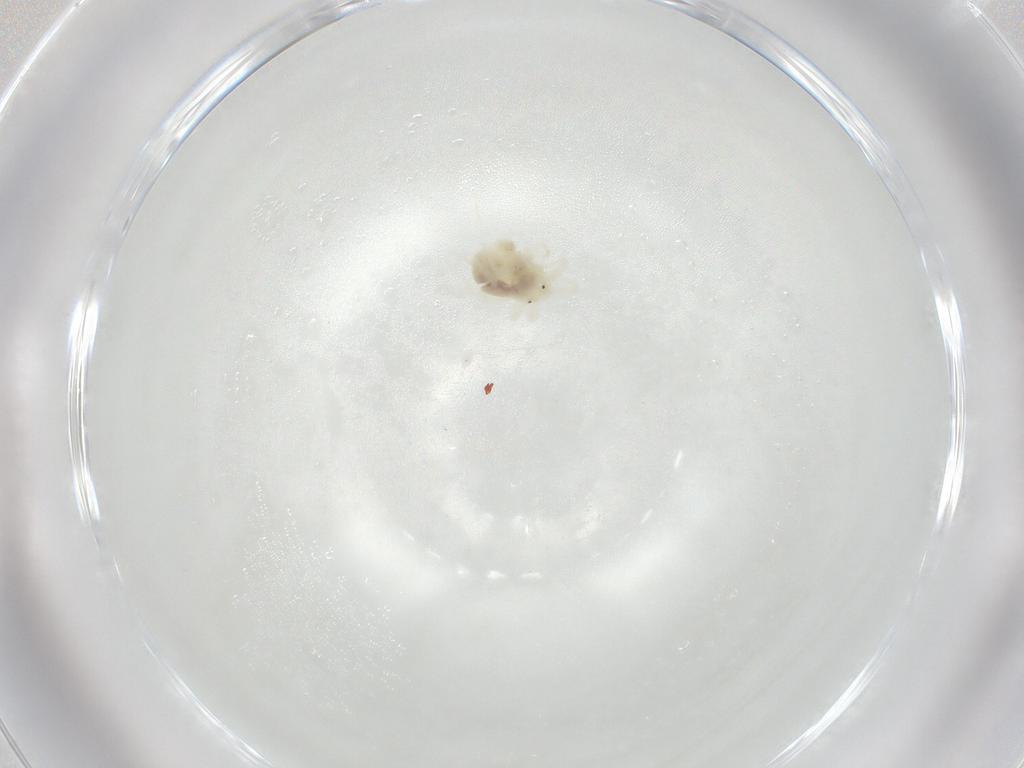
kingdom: Animalia
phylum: Arthropoda
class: Arachnida
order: Trombidiformes
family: Anystidae
